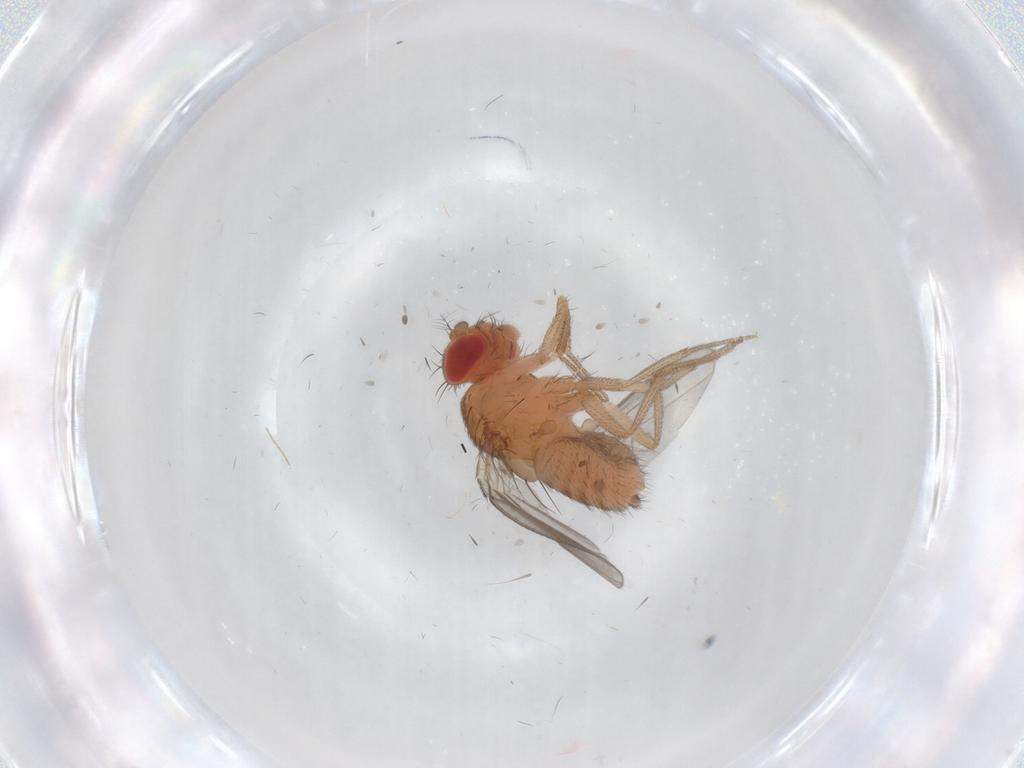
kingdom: Animalia
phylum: Arthropoda
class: Insecta
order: Diptera
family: Drosophilidae
